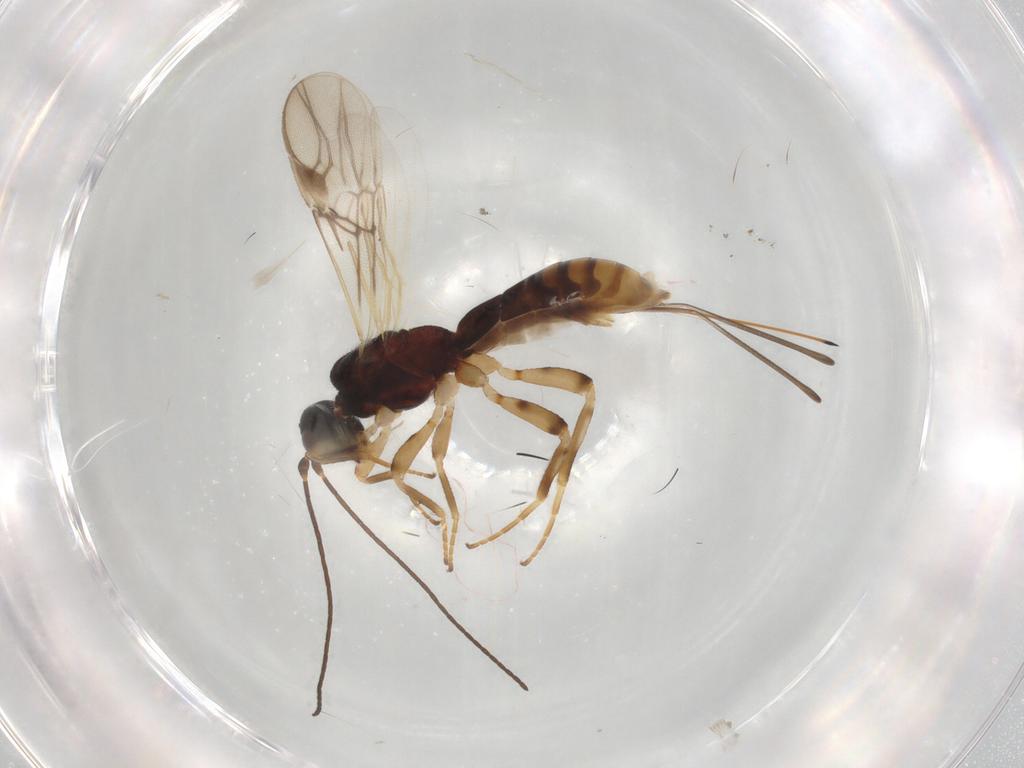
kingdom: Animalia
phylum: Arthropoda
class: Insecta
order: Hymenoptera
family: Braconidae
